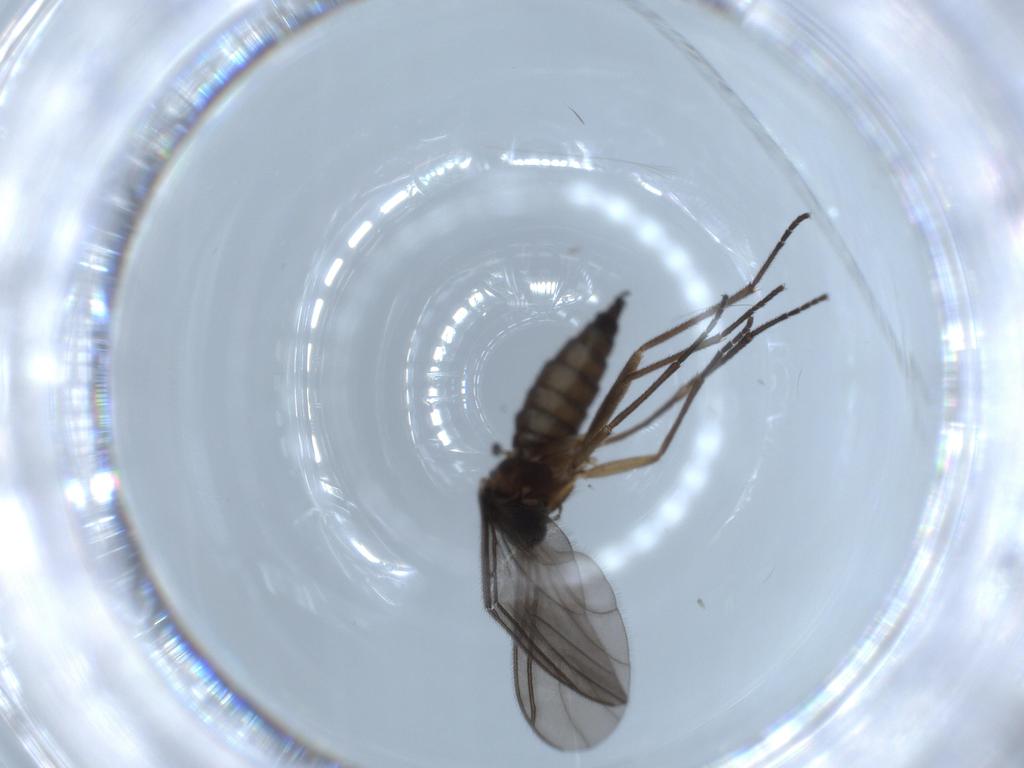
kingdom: Animalia
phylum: Arthropoda
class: Insecta
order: Diptera
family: Sciaridae
